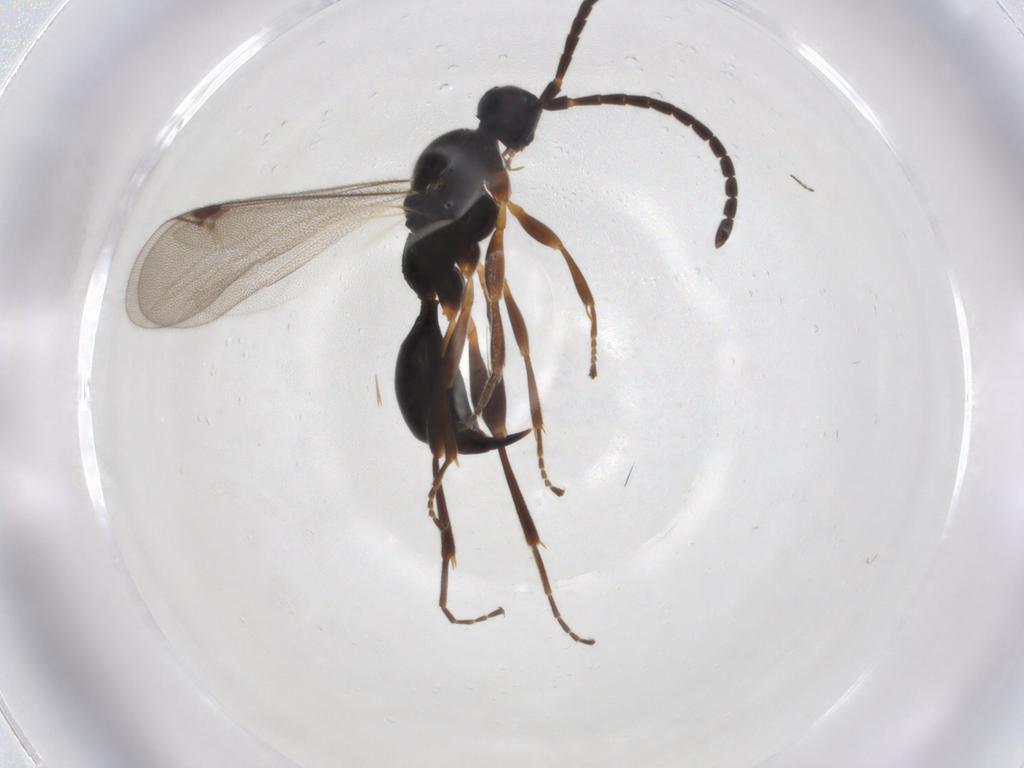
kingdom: Animalia
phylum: Arthropoda
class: Insecta
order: Hymenoptera
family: Proctotrupidae
